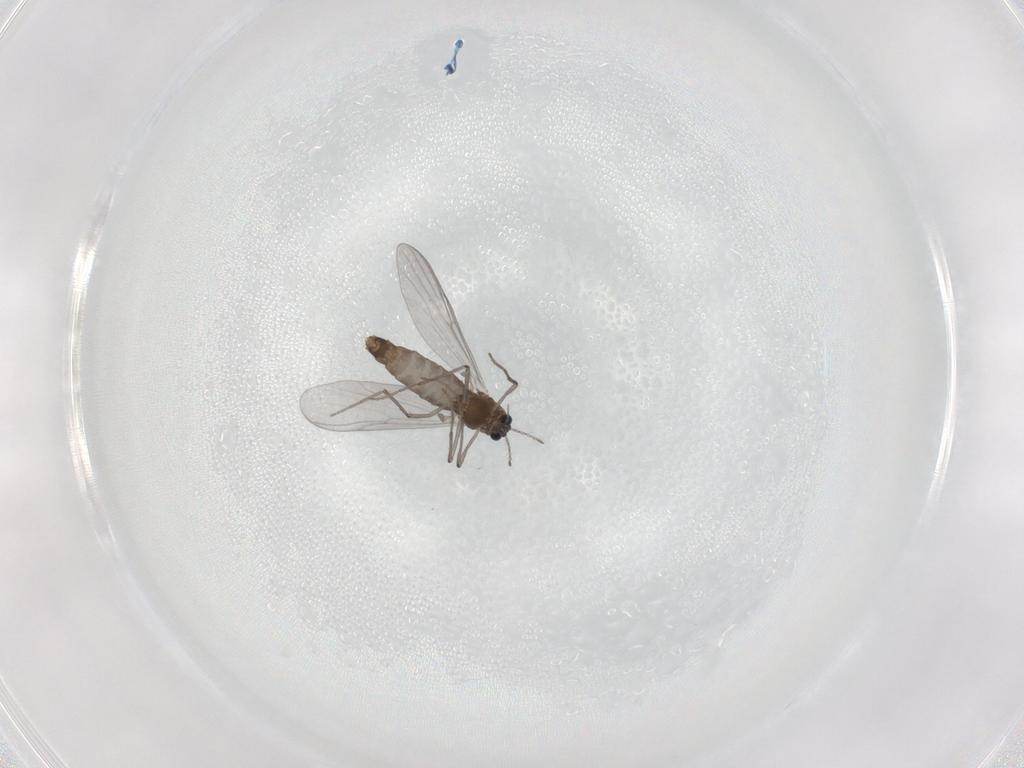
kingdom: Animalia
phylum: Arthropoda
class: Insecta
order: Diptera
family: Chironomidae
